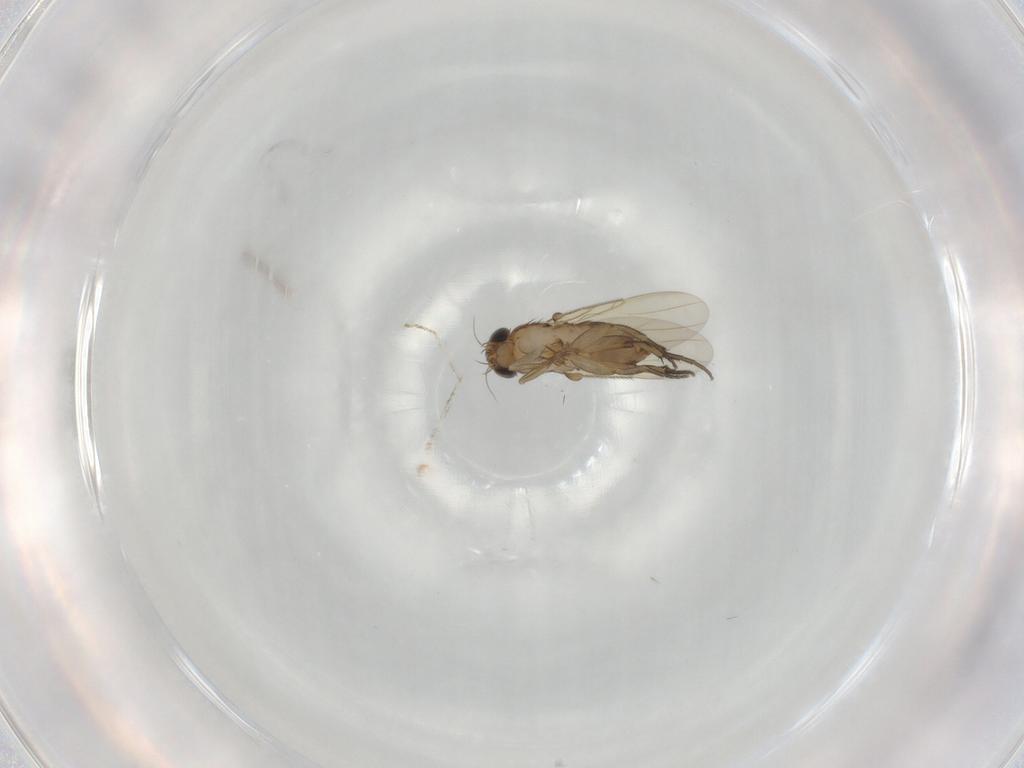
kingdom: Animalia
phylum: Arthropoda
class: Insecta
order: Diptera
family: Phoridae
